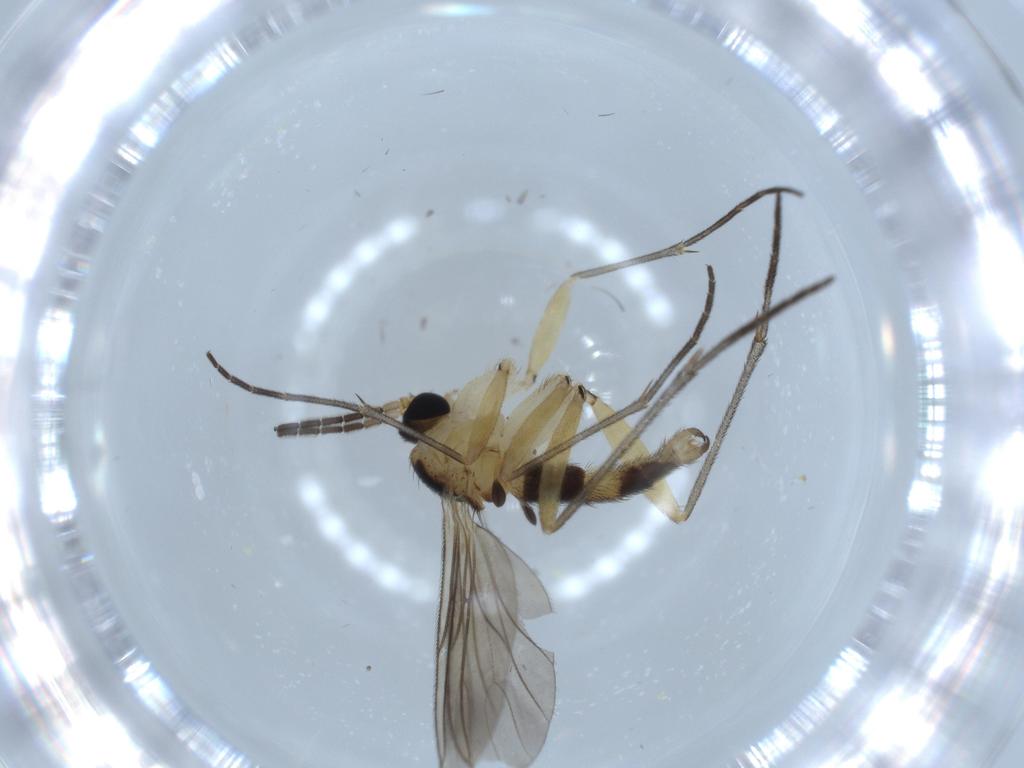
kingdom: Animalia
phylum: Arthropoda
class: Insecta
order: Diptera
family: Sciaridae
